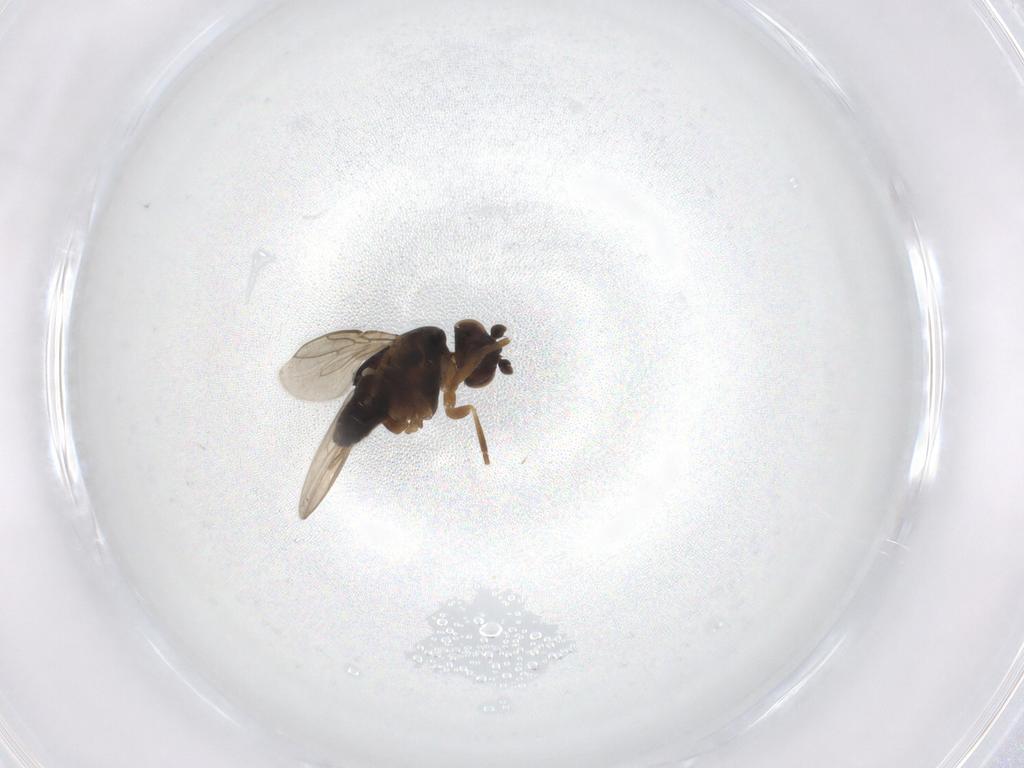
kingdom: Animalia
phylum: Arthropoda
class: Insecta
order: Diptera
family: Sphaeroceridae
